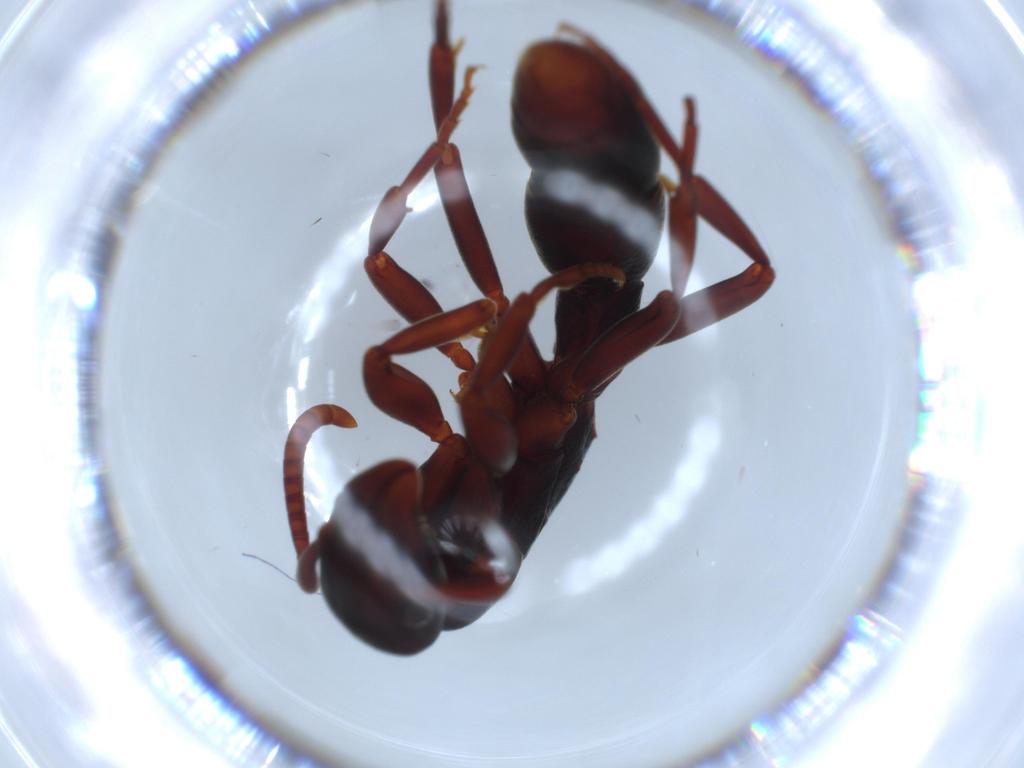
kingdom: Animalia
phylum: Arthropoda
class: Insecta
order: Hymenoptera
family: Formicidae
